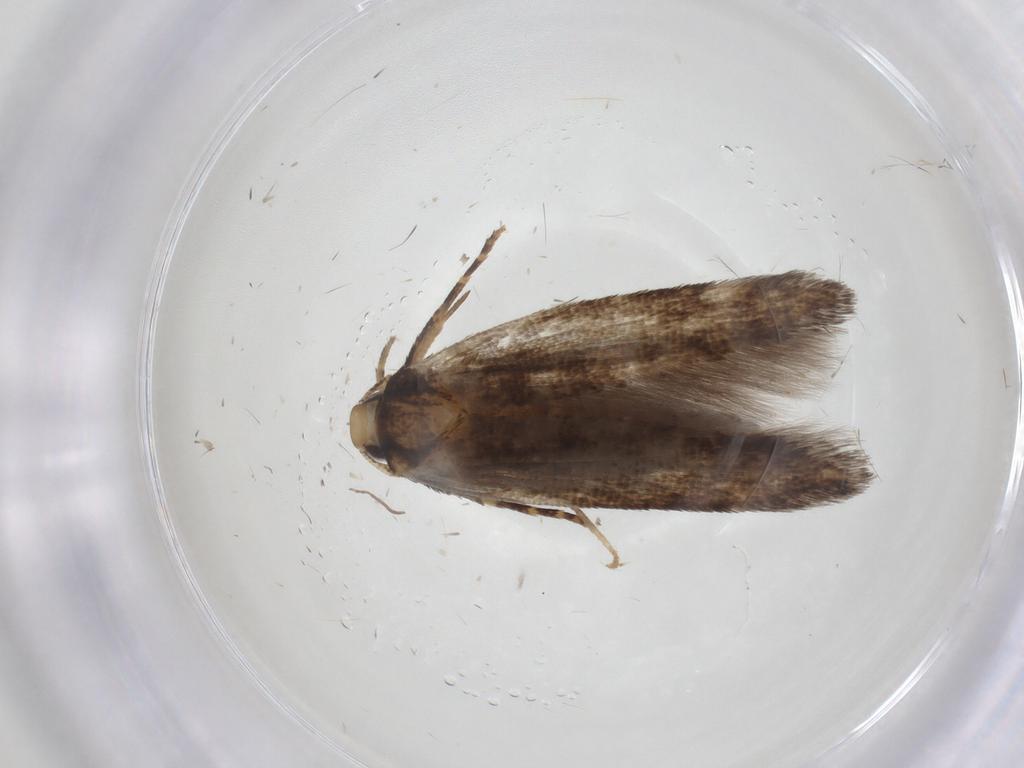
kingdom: Animalia
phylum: Arthropoda
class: Insecta
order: Lepidoptera
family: Cosmopterigidae
